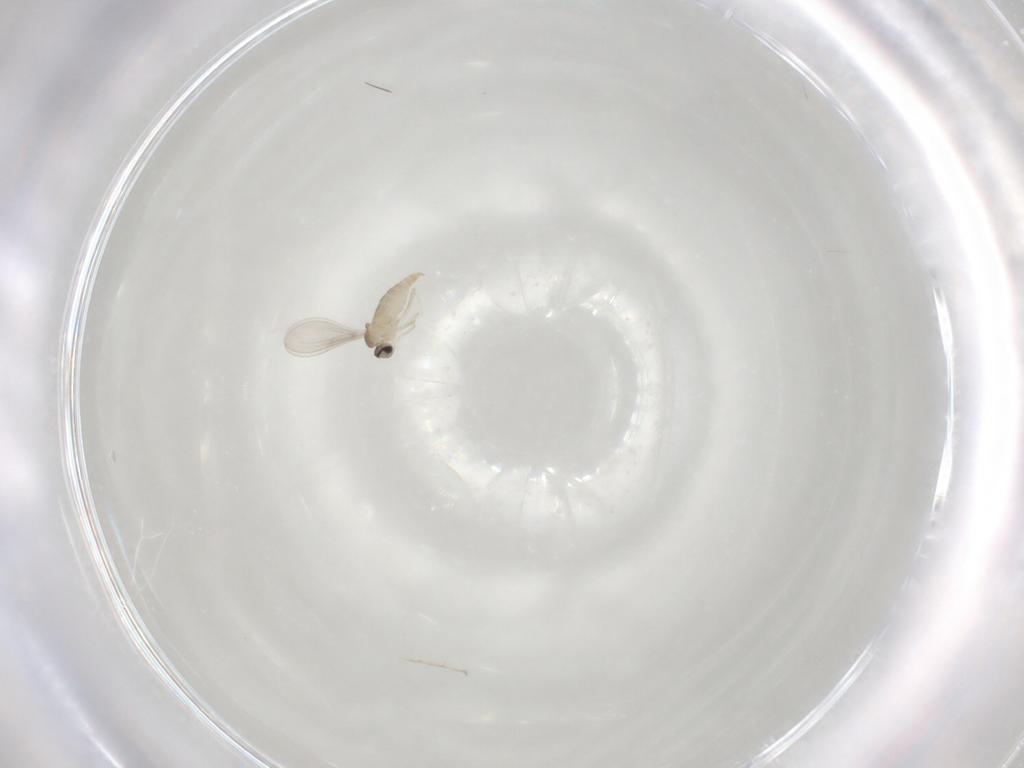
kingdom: Animalia
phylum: Arthropoda
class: Insecta
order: Diptera
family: Cecidomyiidae
